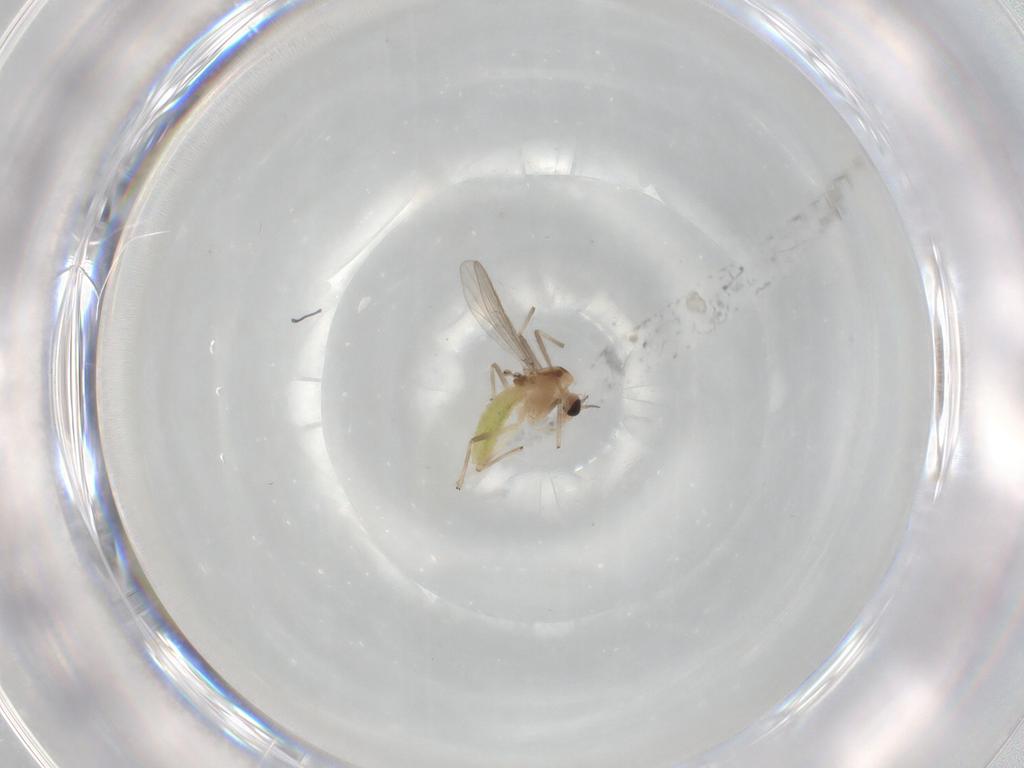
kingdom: Animalia
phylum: Arthropoda
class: Insecta
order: Diptera
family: Chironomidae
